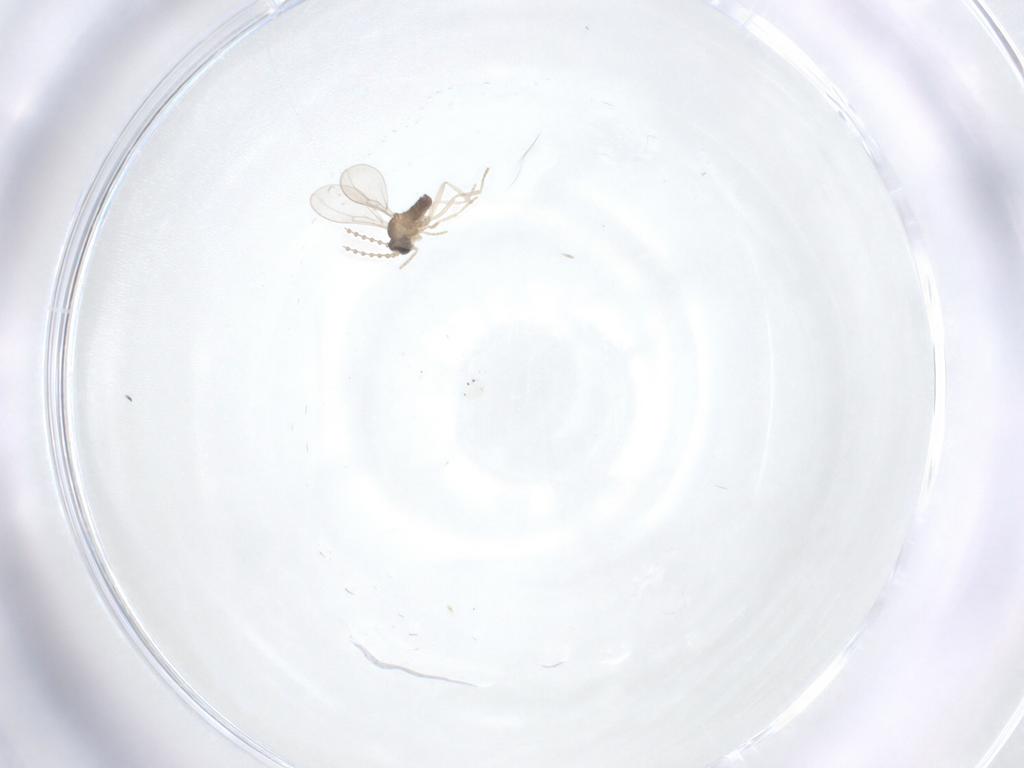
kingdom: Animalia
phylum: Arthropoda
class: Insecta
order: Diptera
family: Cecidomyiidae
